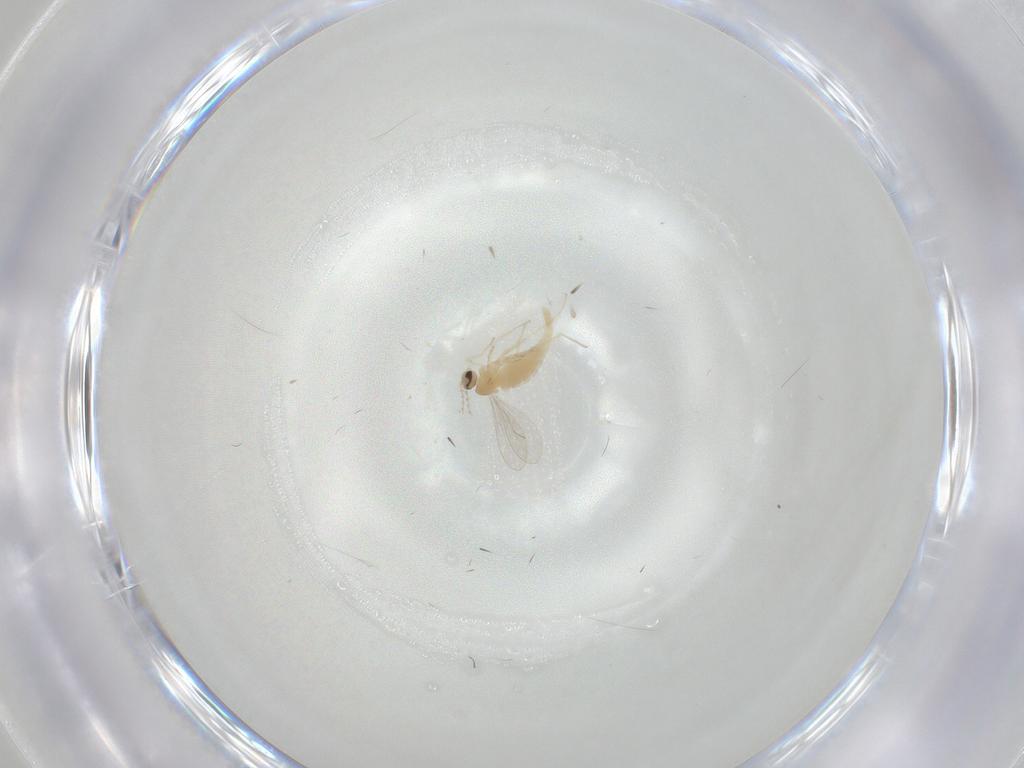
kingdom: Animalia
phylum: Arthropoda
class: Insecta
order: Diptera
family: Cecidomyiidae
